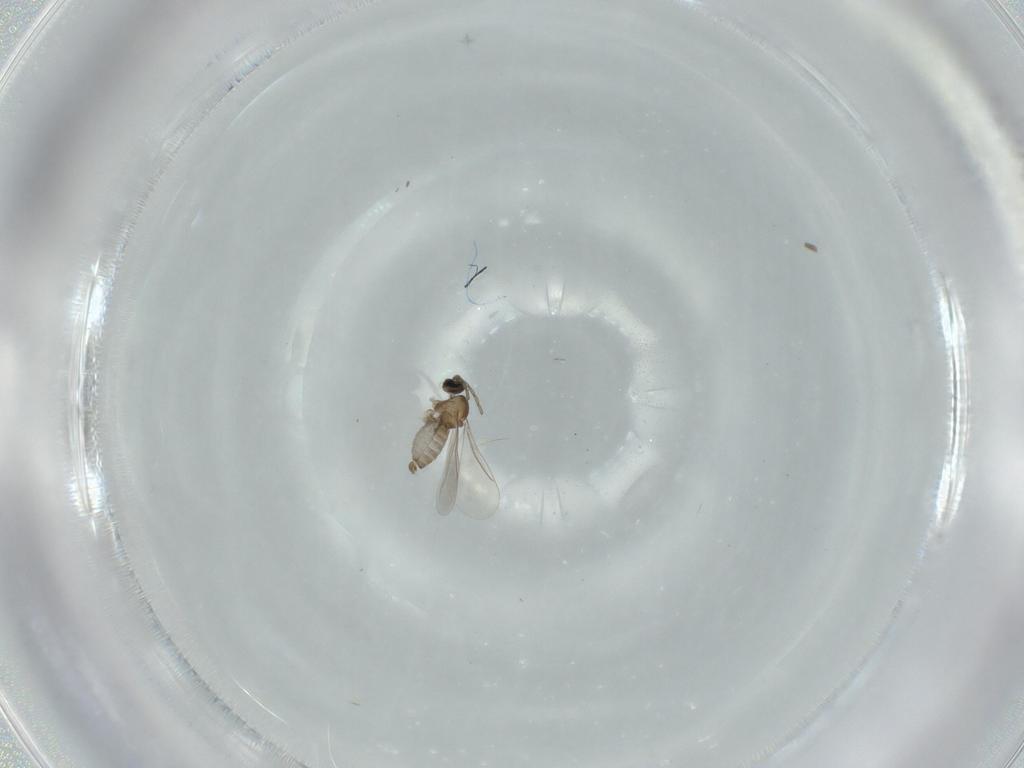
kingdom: Animalia
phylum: Arthropoda
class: Insecta
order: Diptera
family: Cecidomyiidae
